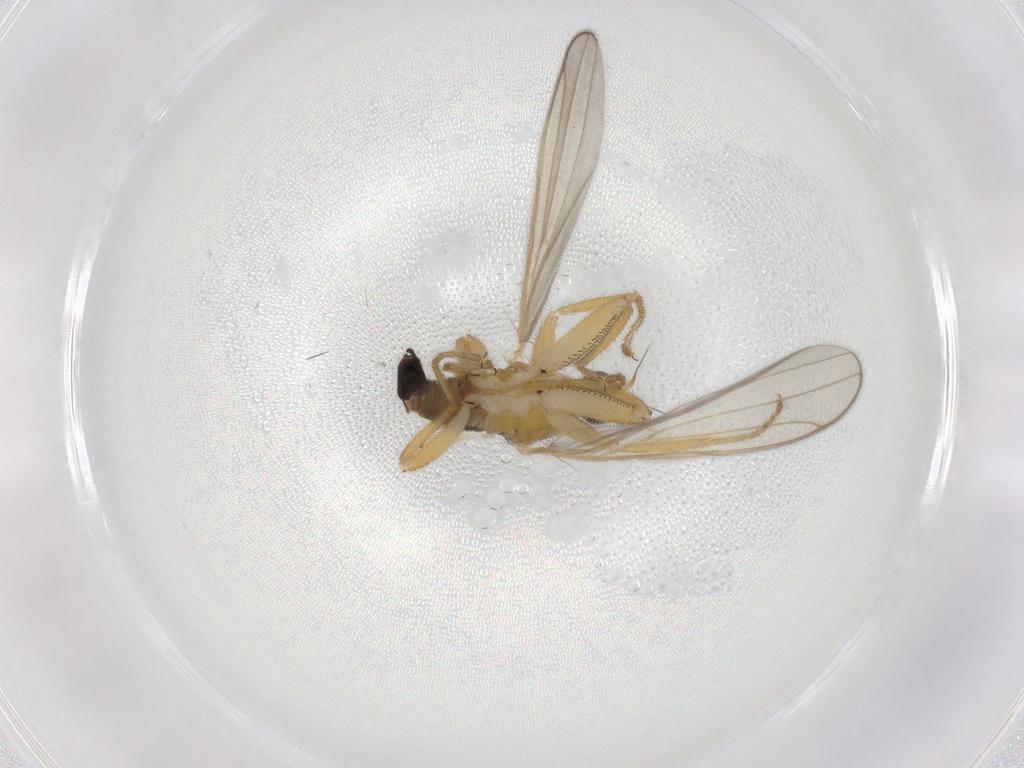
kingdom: Animalia
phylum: Arthropoda
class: Insecta
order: Diptera
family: Hybotidae
